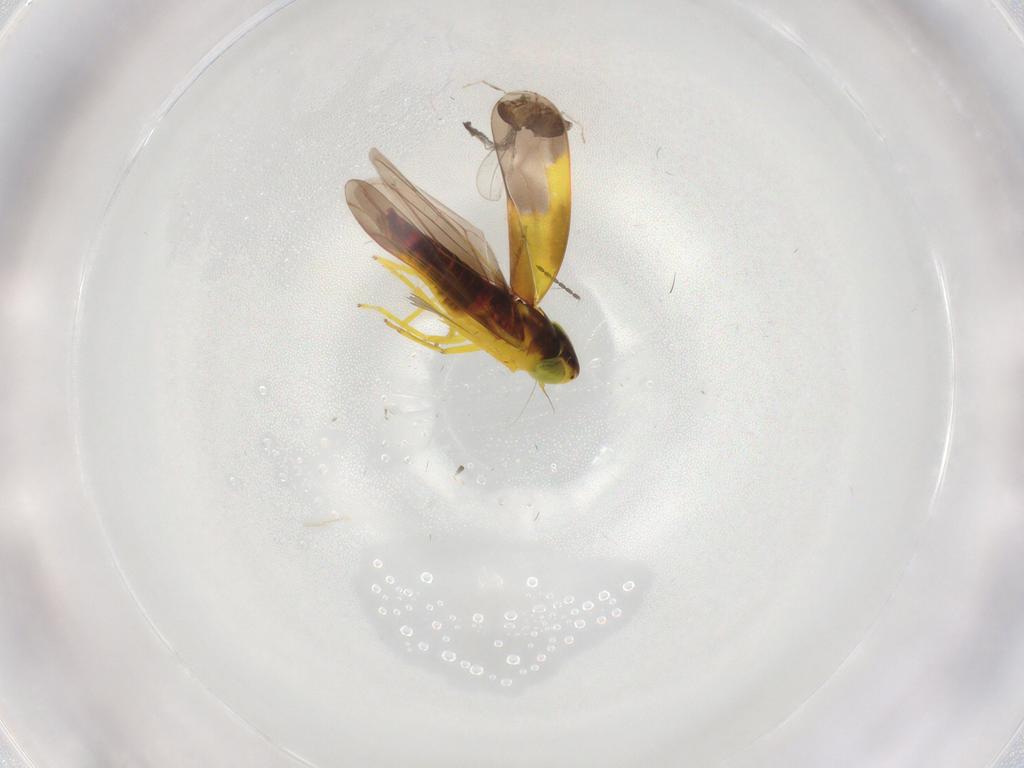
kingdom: Animalia
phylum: Arthropoda
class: Insecta
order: Hemiptera
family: Cicadellidae
